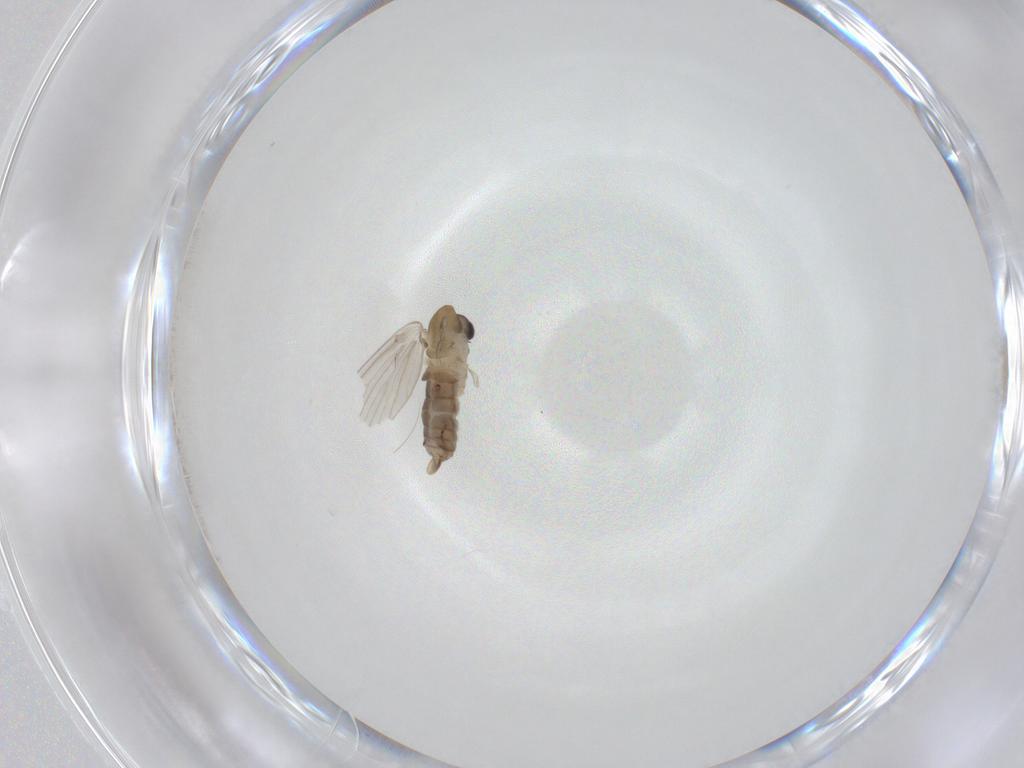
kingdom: Animalia
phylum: Arthropoda
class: Insecta
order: Diptera
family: Psychodidae
